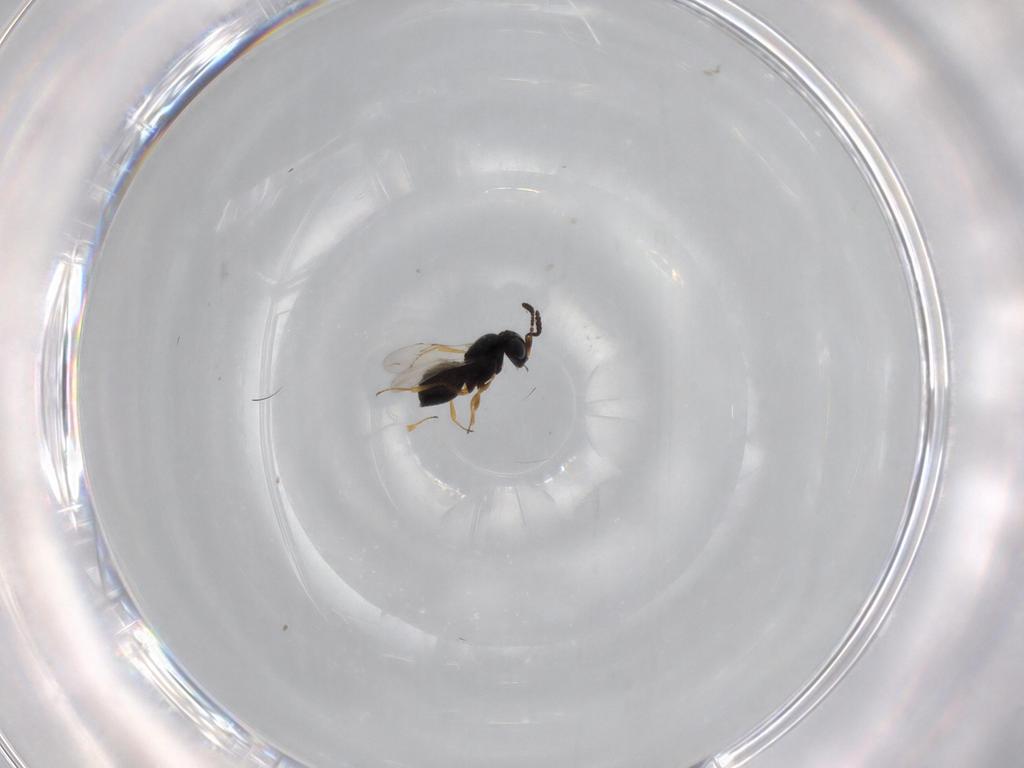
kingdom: Animalia
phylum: Arthropoda
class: Insecta
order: Hymenoptera
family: Scelionidae
